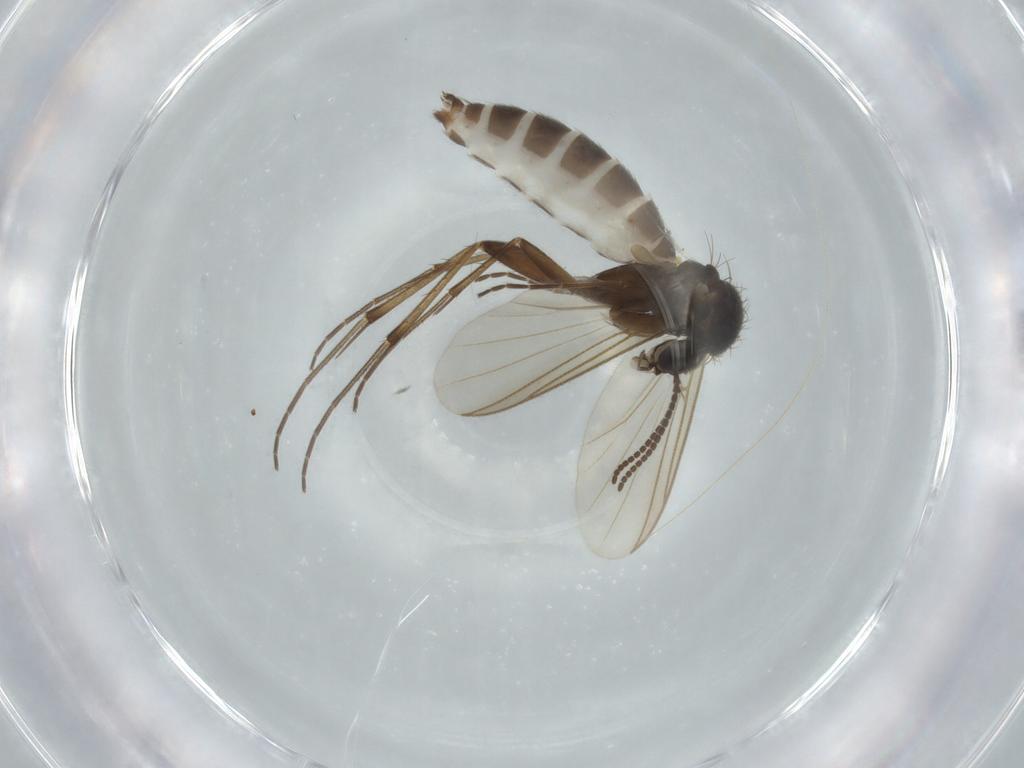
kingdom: Animalia
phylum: Arthropoda
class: Insecta
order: Diptera
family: Mycetophilidae
